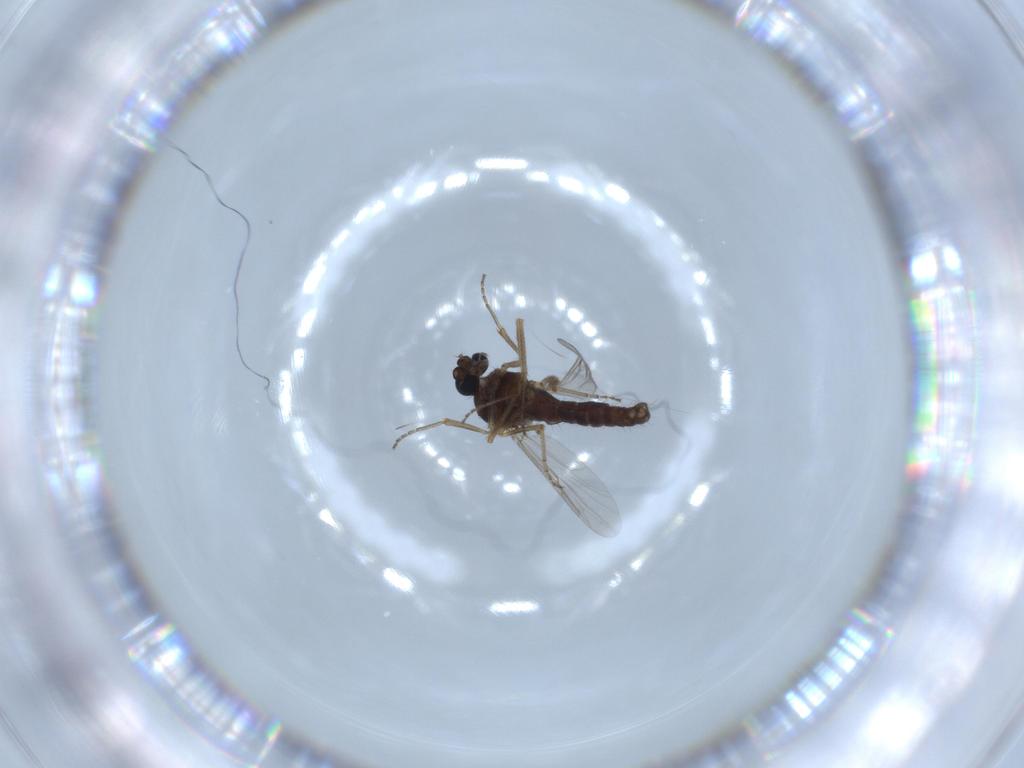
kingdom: Animalia
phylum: Arthropoda
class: Insecta
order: Diptera
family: Ceratopogonidae
